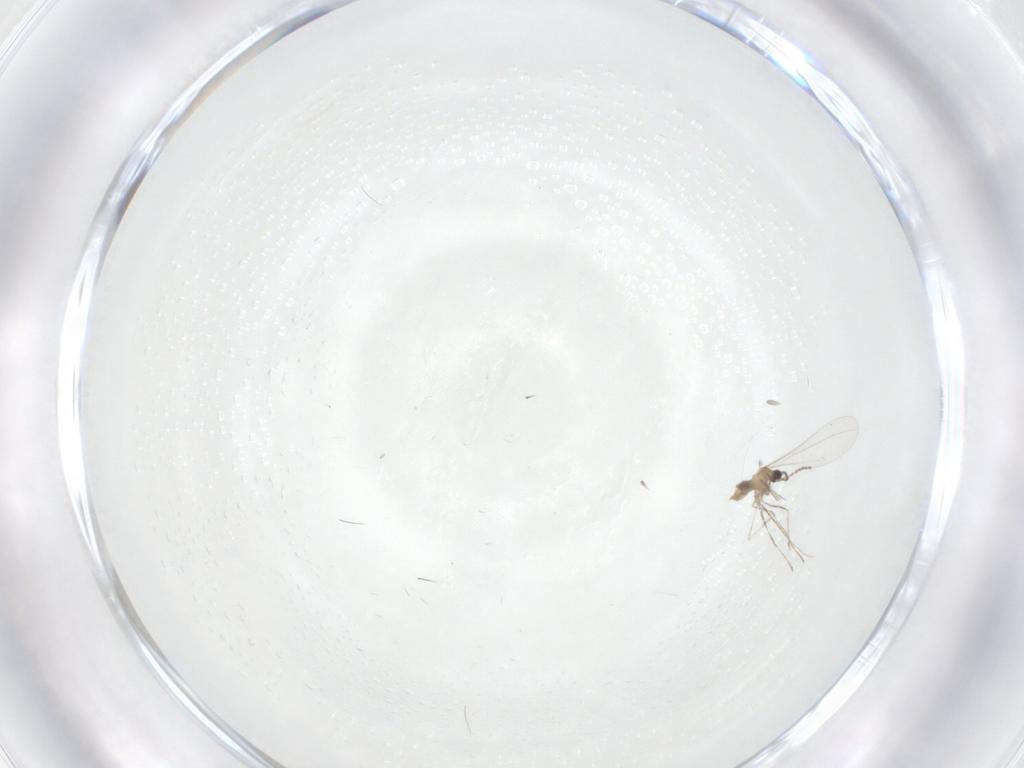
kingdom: Animalia
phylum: Arthropoda
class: Insecta
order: Diptera
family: Cecidomyiidae
